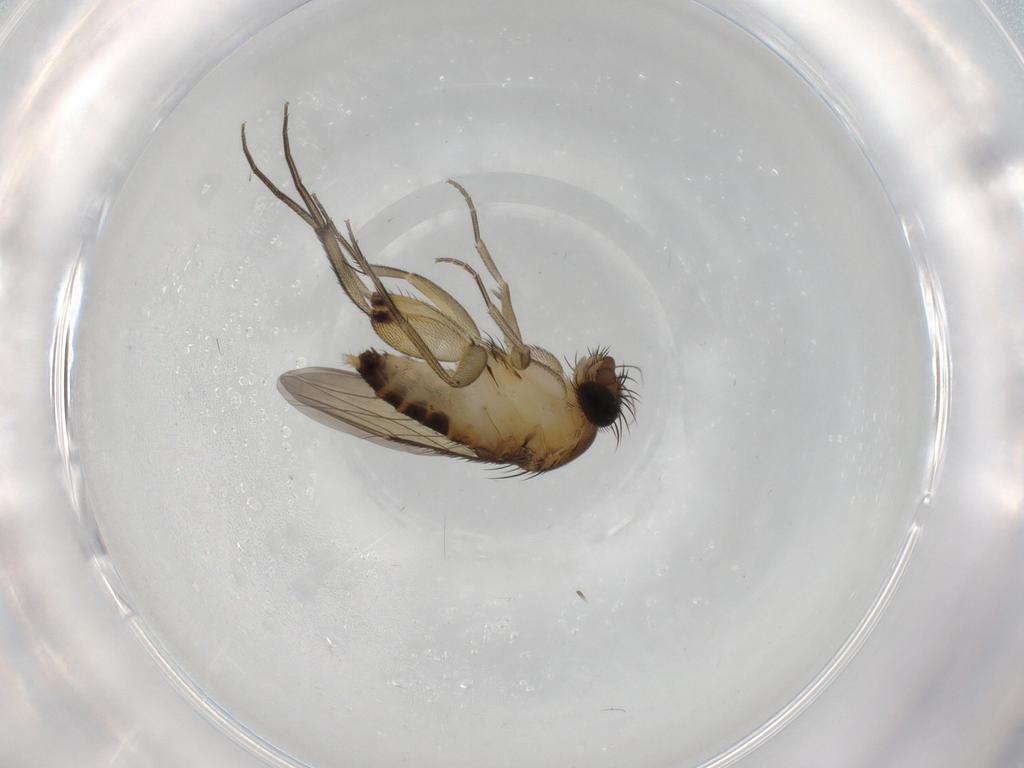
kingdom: Animalia
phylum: Arthropoda
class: Insecta
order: Diptera
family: Phoridae
